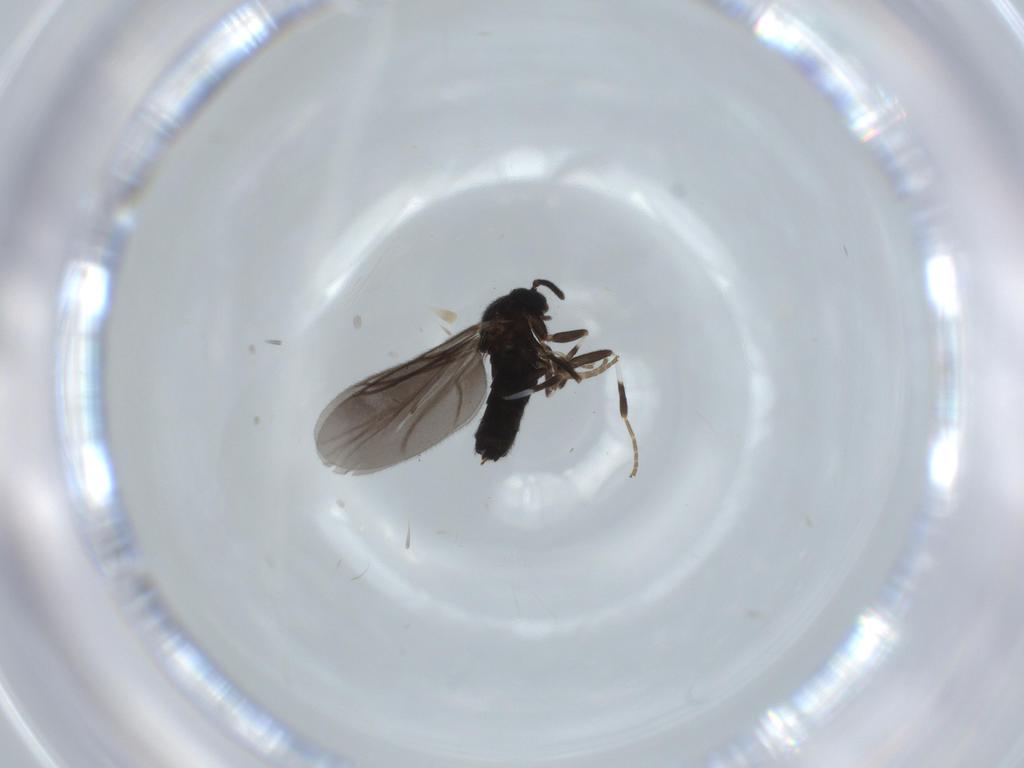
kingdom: Animalia
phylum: Arthropoda
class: Insecta
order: Diptera
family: Scatopsidae
